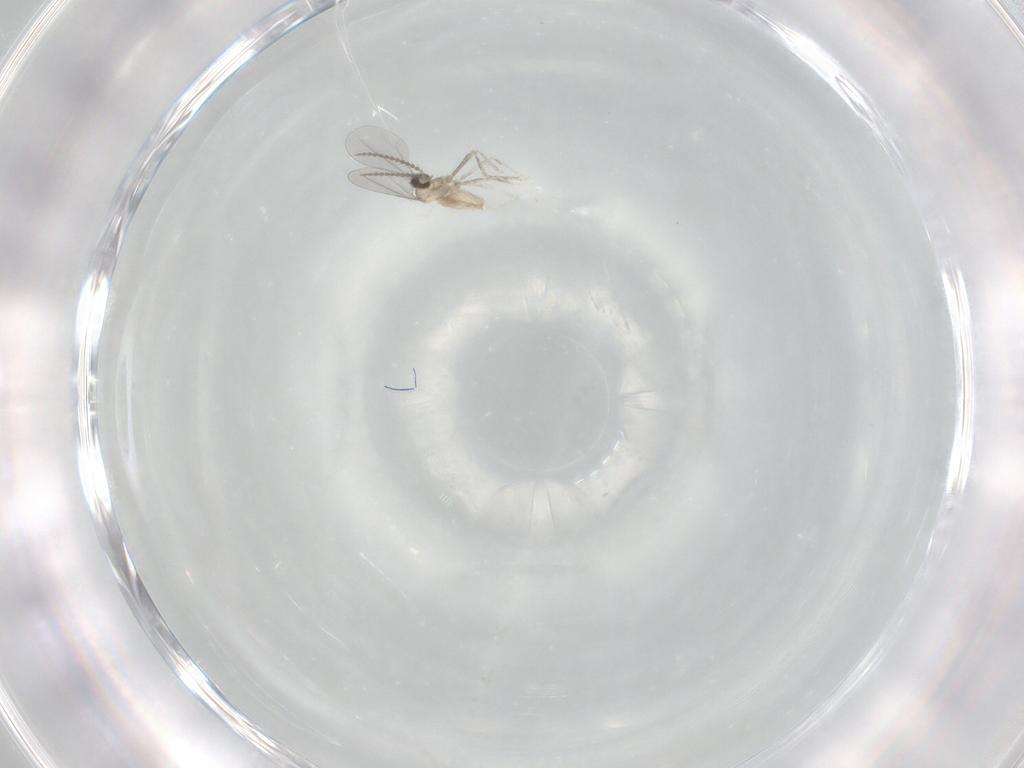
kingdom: Animalia
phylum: Arthropoda
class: Insecta
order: Diptera
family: Cecidomyiidae
